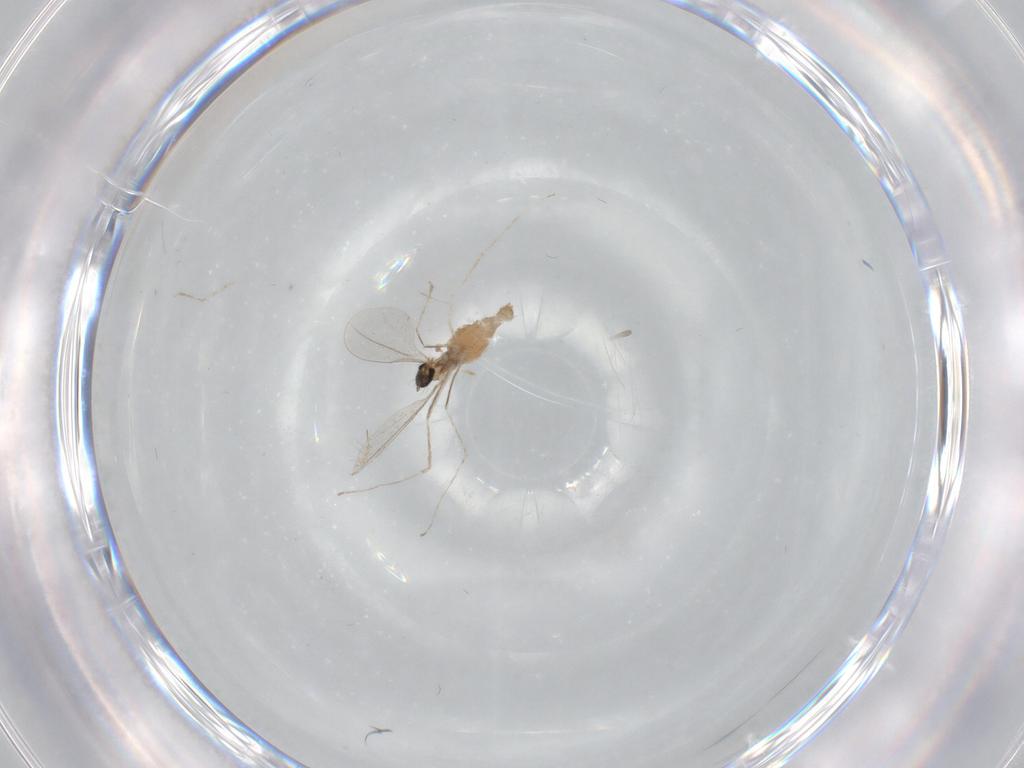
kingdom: Animalia
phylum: Arthropoda
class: Insecta
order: Diptera
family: Cecidomyiidae
